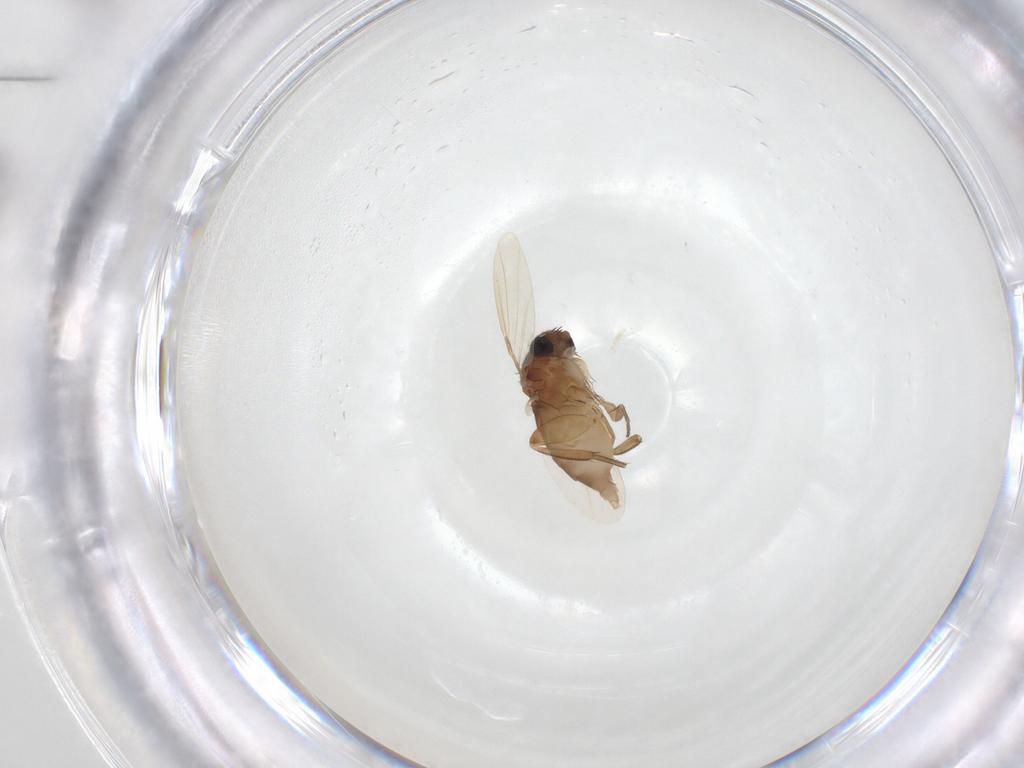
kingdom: Animalia
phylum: Arthropoda
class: Insecta
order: Diptera
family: Phoridae
